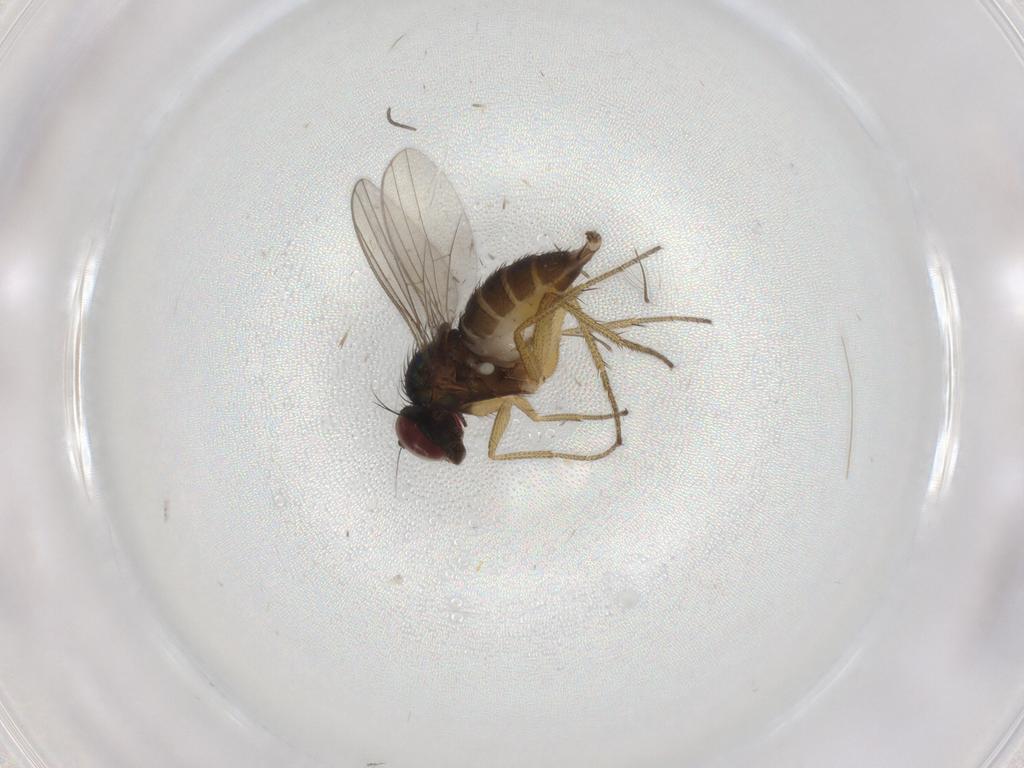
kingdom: Animalia
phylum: Arthropoda
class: Insecta
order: Diptera
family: Sciaridae
